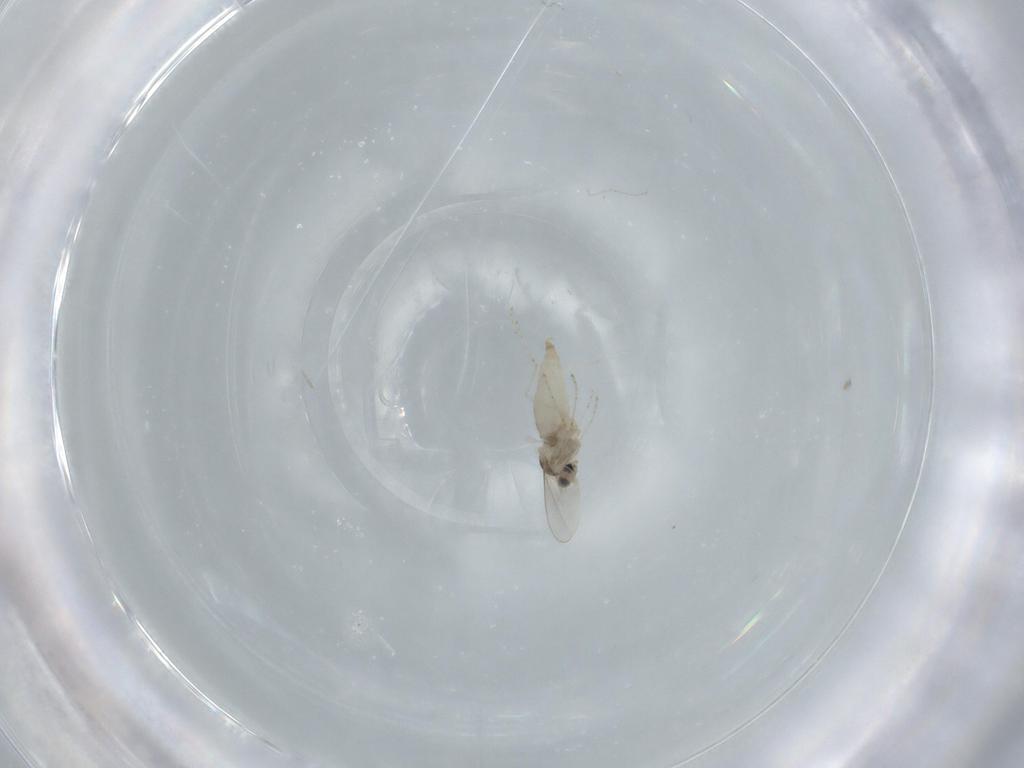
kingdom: Animalia
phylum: Arthropoda
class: Insecta
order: Diptera
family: Cecidomyiidae
